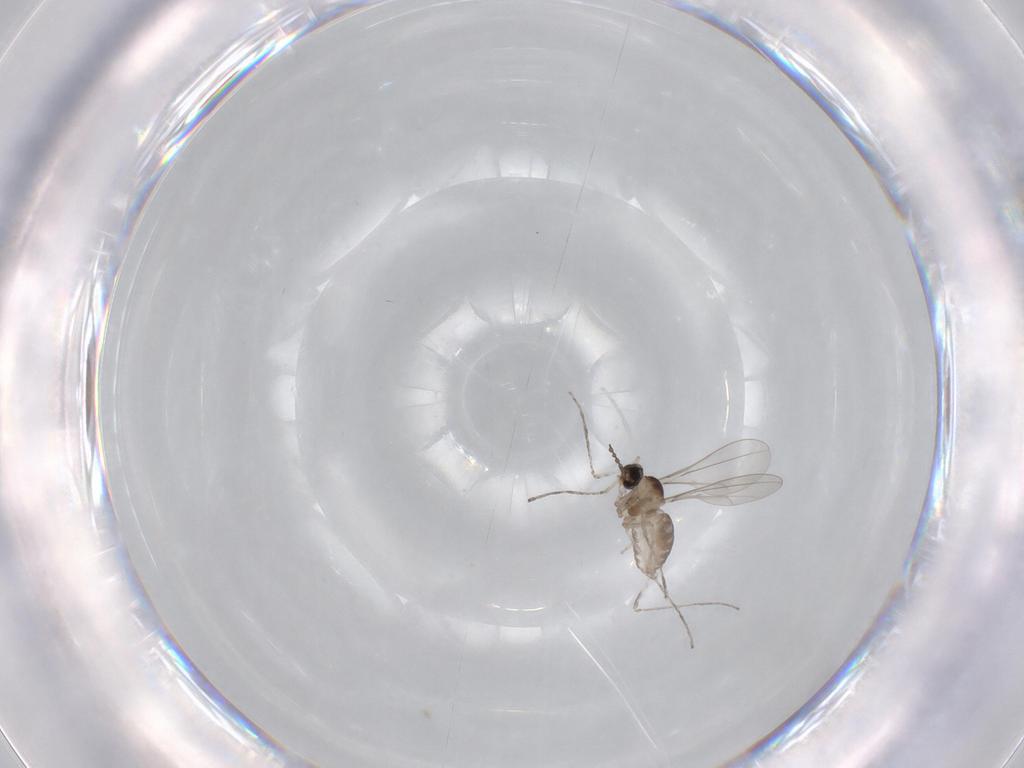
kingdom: Animalia
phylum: Arthropoda
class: Insecta
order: Diptera
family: Cecidomyiidae
